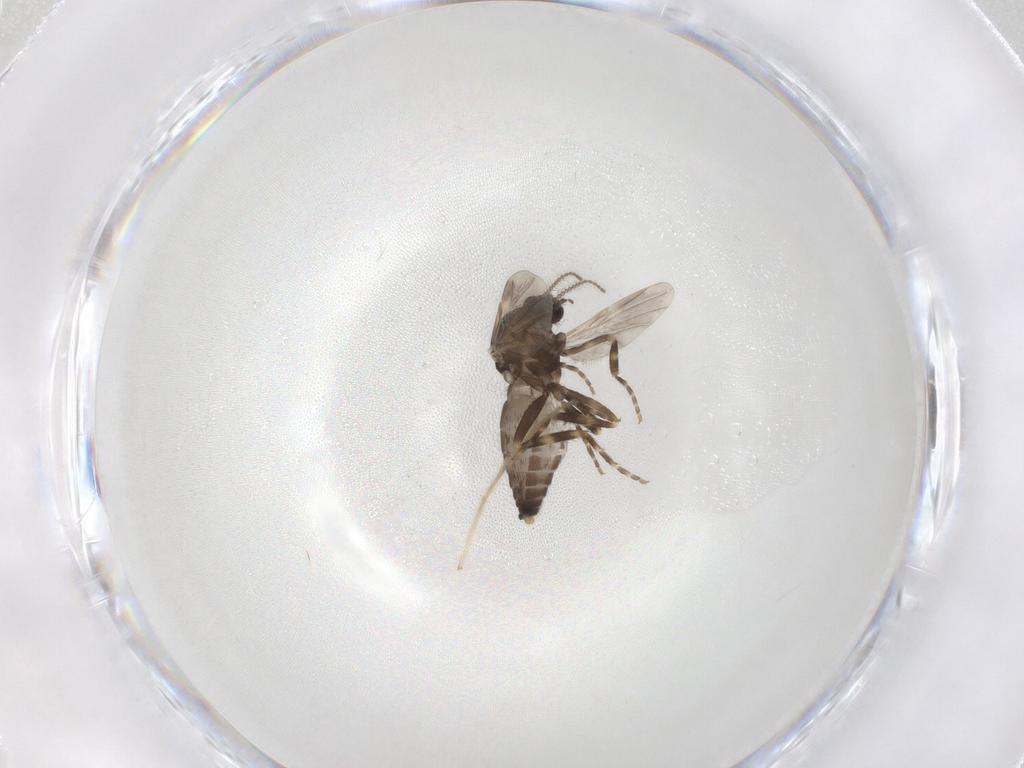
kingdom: Animalia
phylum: Arthropoda
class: Insecta
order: Diptera
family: Ceratopogonidae
